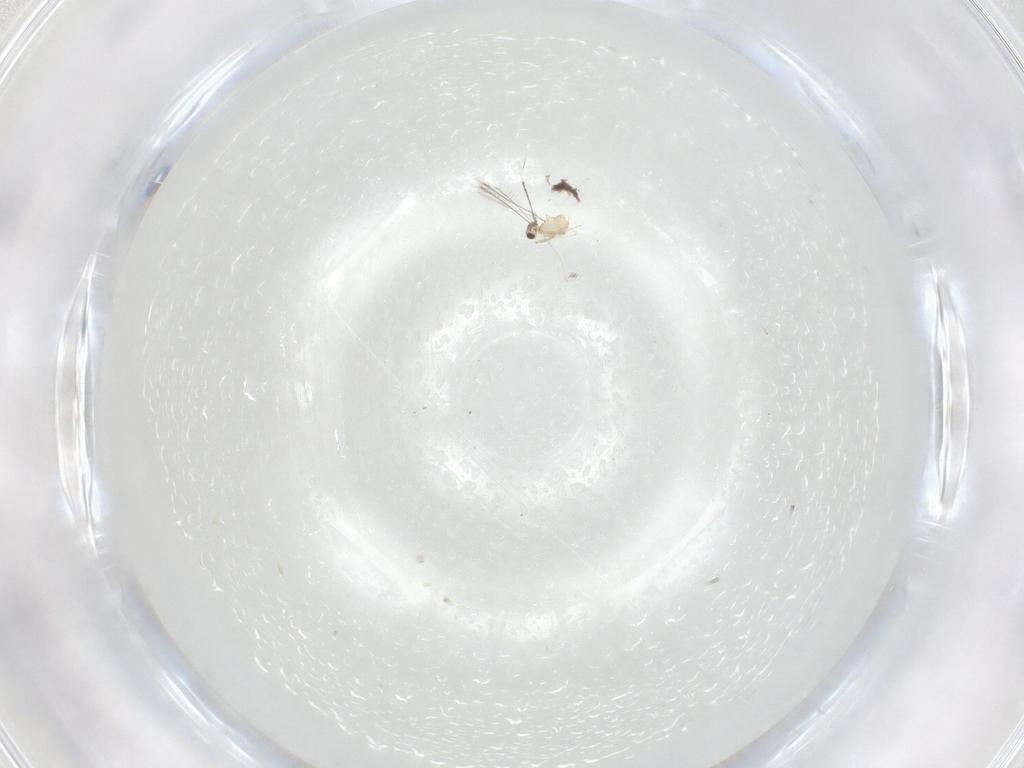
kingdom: Animalia
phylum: Arthropoda
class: Insecta
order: Hymenoptera
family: Mymaridae
